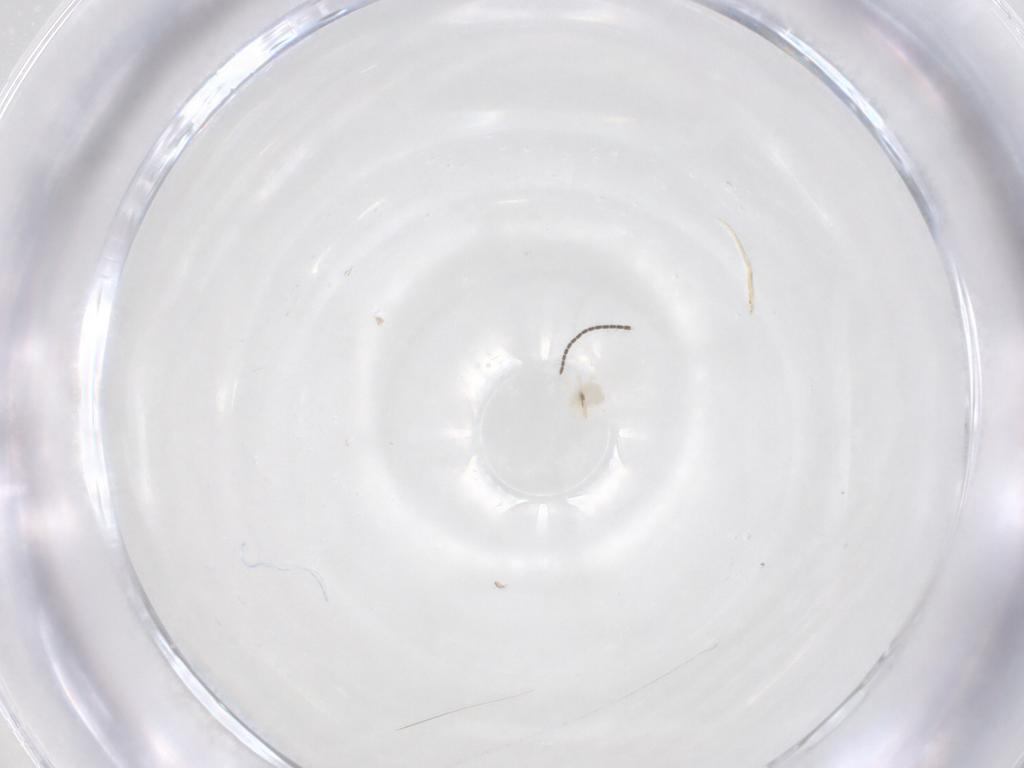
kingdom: Animalia
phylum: Arthropoda
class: Arachnida
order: Trombidiformes
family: Anystidae
